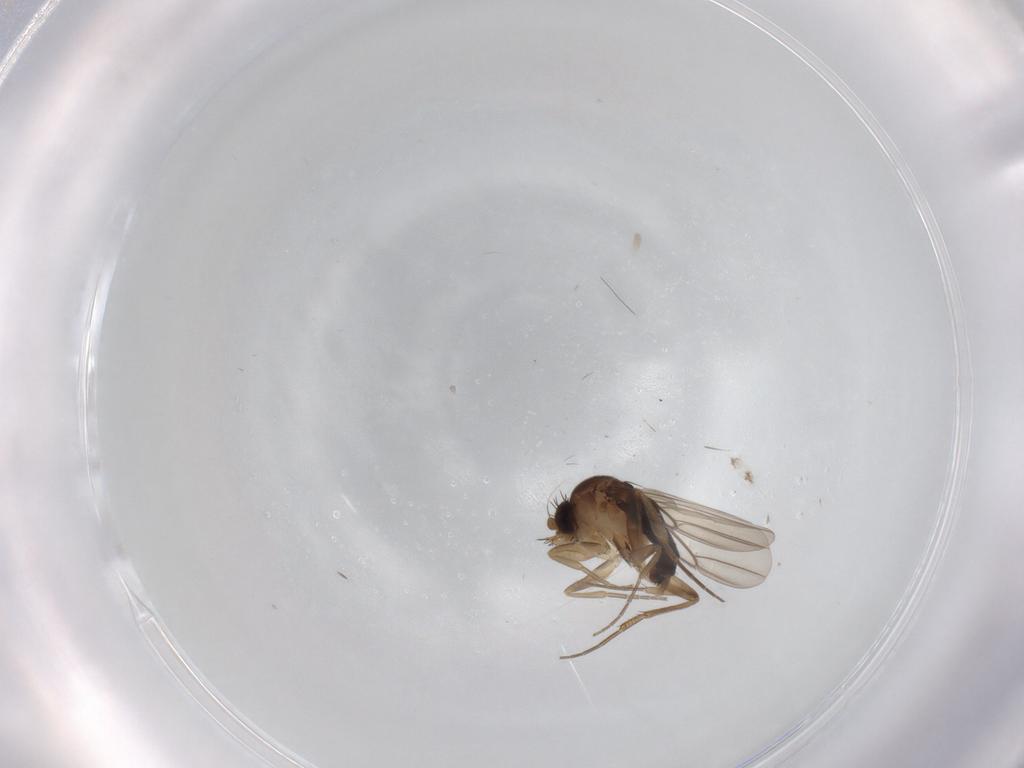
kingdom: Animalia
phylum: Arthropoda
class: Insecta
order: Diptera
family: Phoridae
